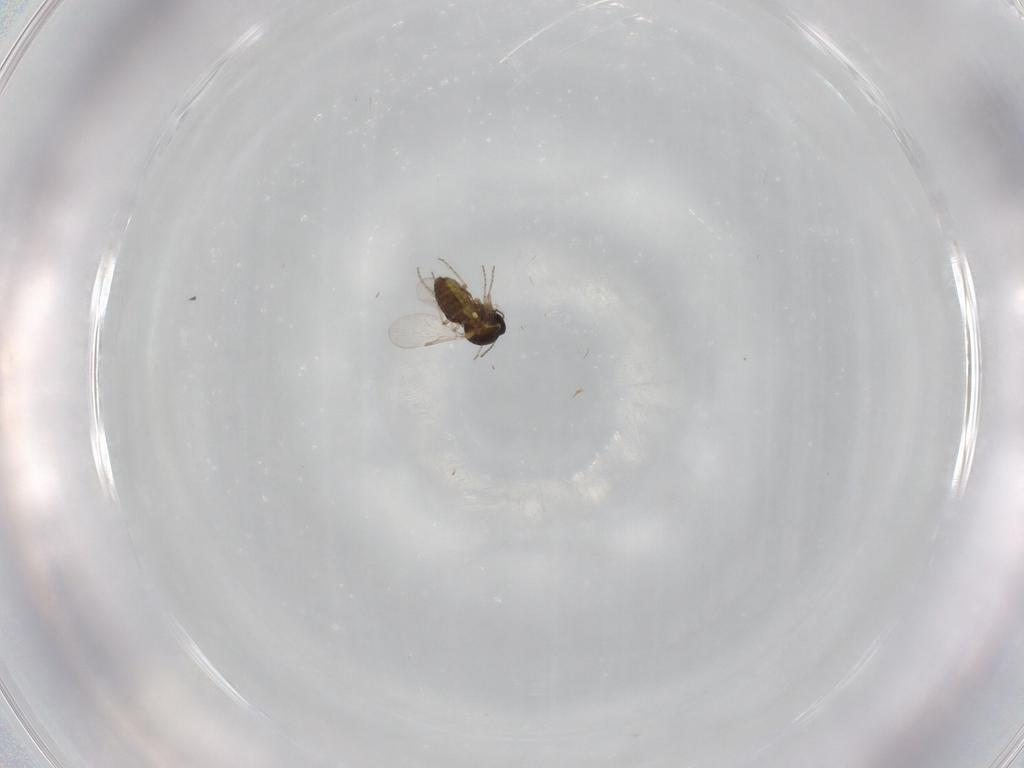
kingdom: Animalia
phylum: Arthropoda
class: Insecta
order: Diptera
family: Ceratopogonidae
